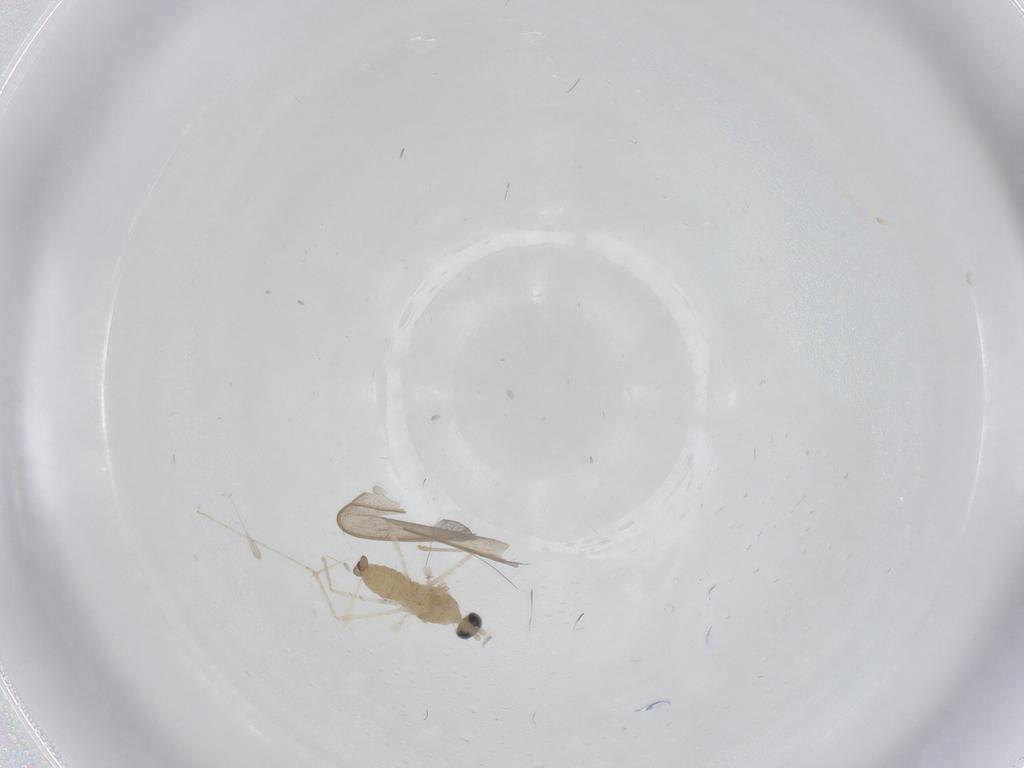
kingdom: Animalia
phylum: Arthropoda
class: Insecta
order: Diptera
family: Cecidomyiidae
